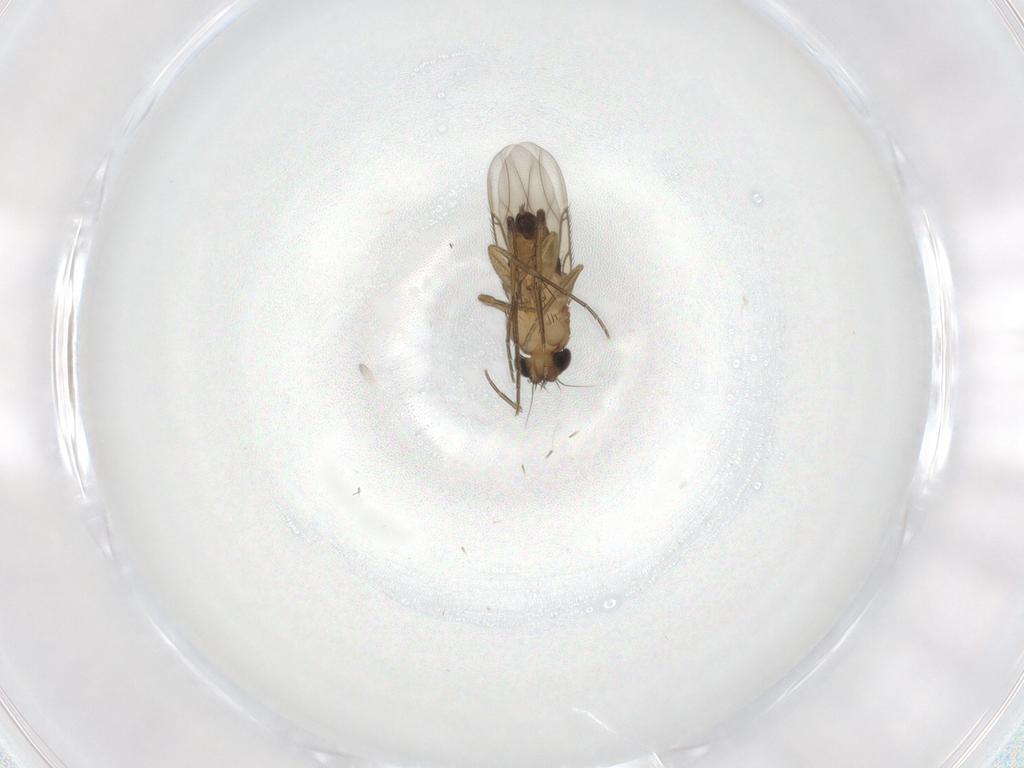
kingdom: Animalia
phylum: Arthropoda
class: Insecta
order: Diptera
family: Phoridae
